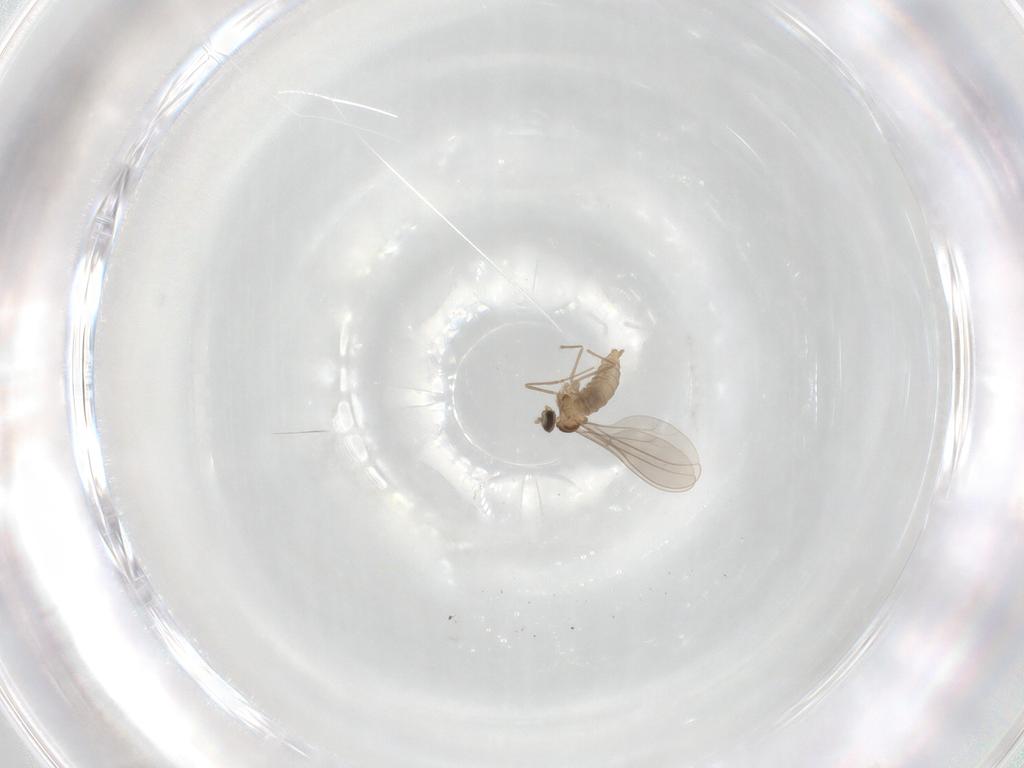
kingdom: Animalia
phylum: Arthropoda
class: Insecta
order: Diptera
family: Cecidomyiidae
